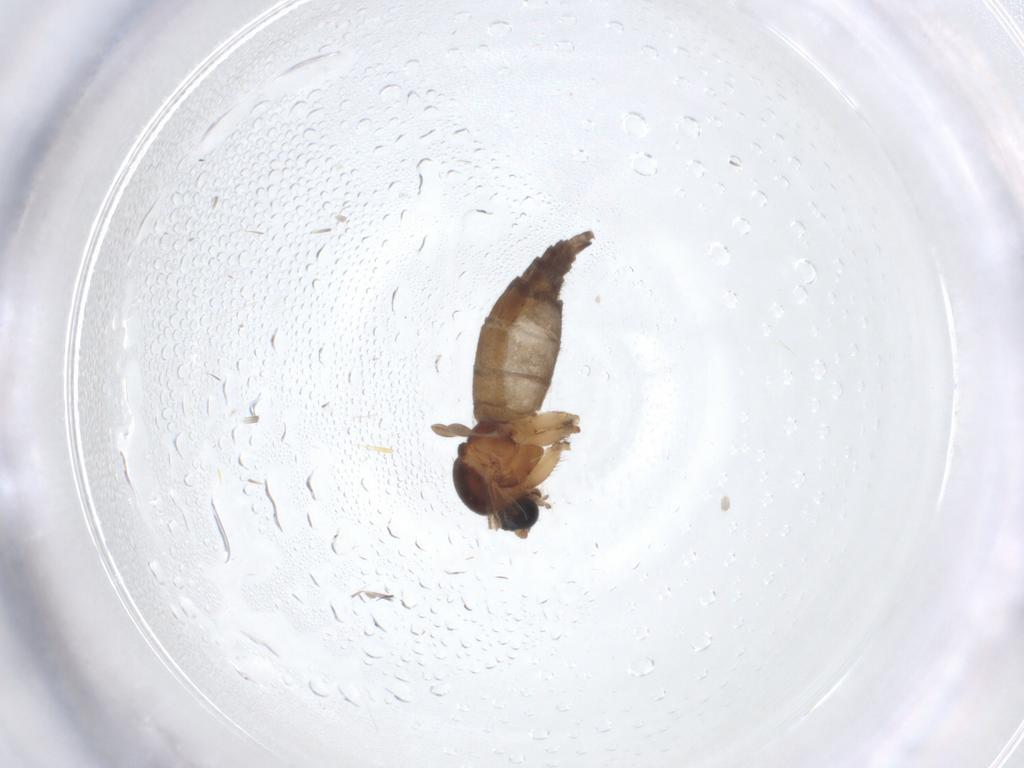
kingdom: Animalia
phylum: Arthropoda
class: Insecta
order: Diptera
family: Sciaridae
